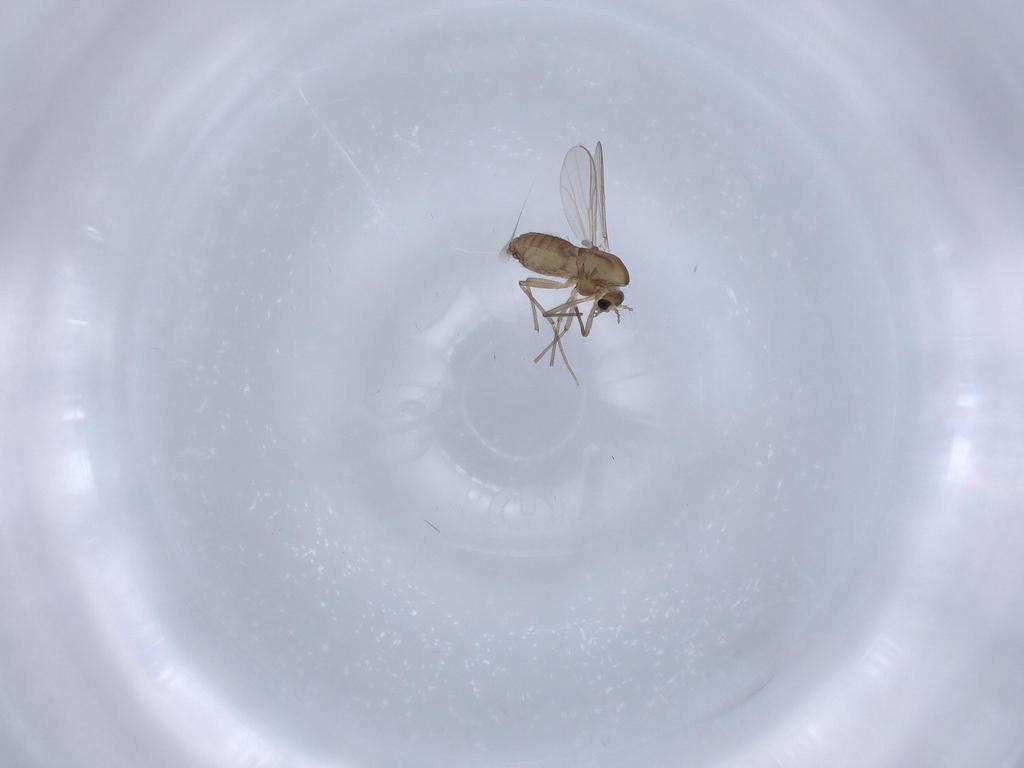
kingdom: Animalia
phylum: Arthropoda
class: Insecta
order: Diptera
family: Chironomidae
